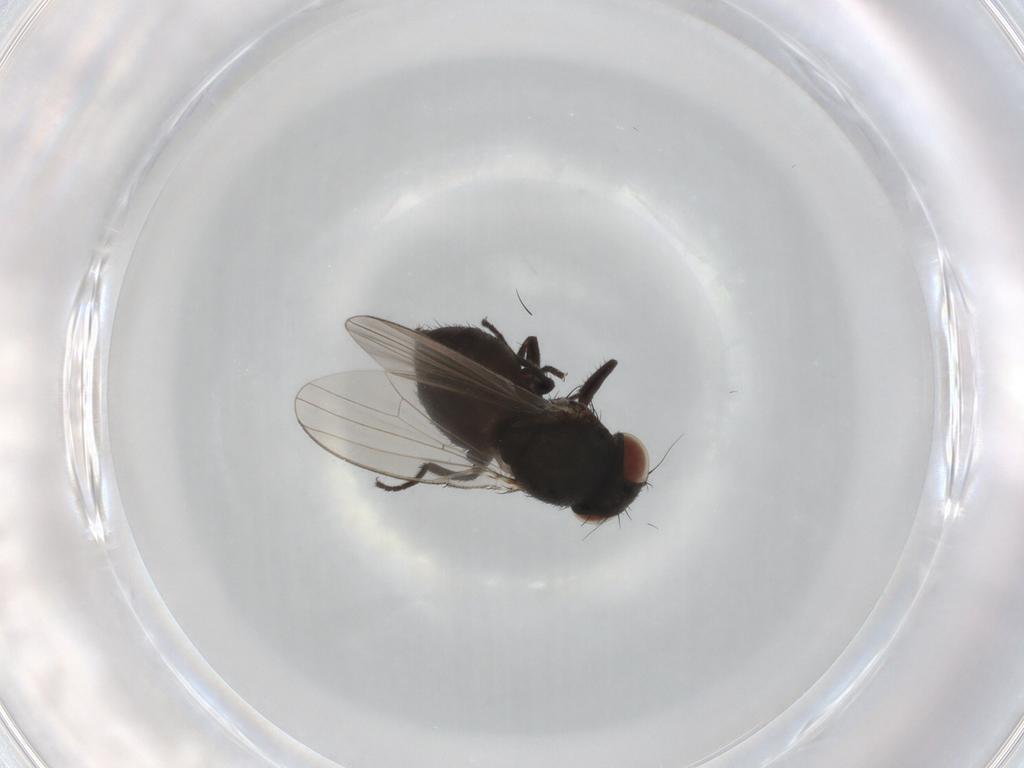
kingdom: Animalia
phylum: Arthropoda
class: Insecta
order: Diptera
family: Milichiidae
